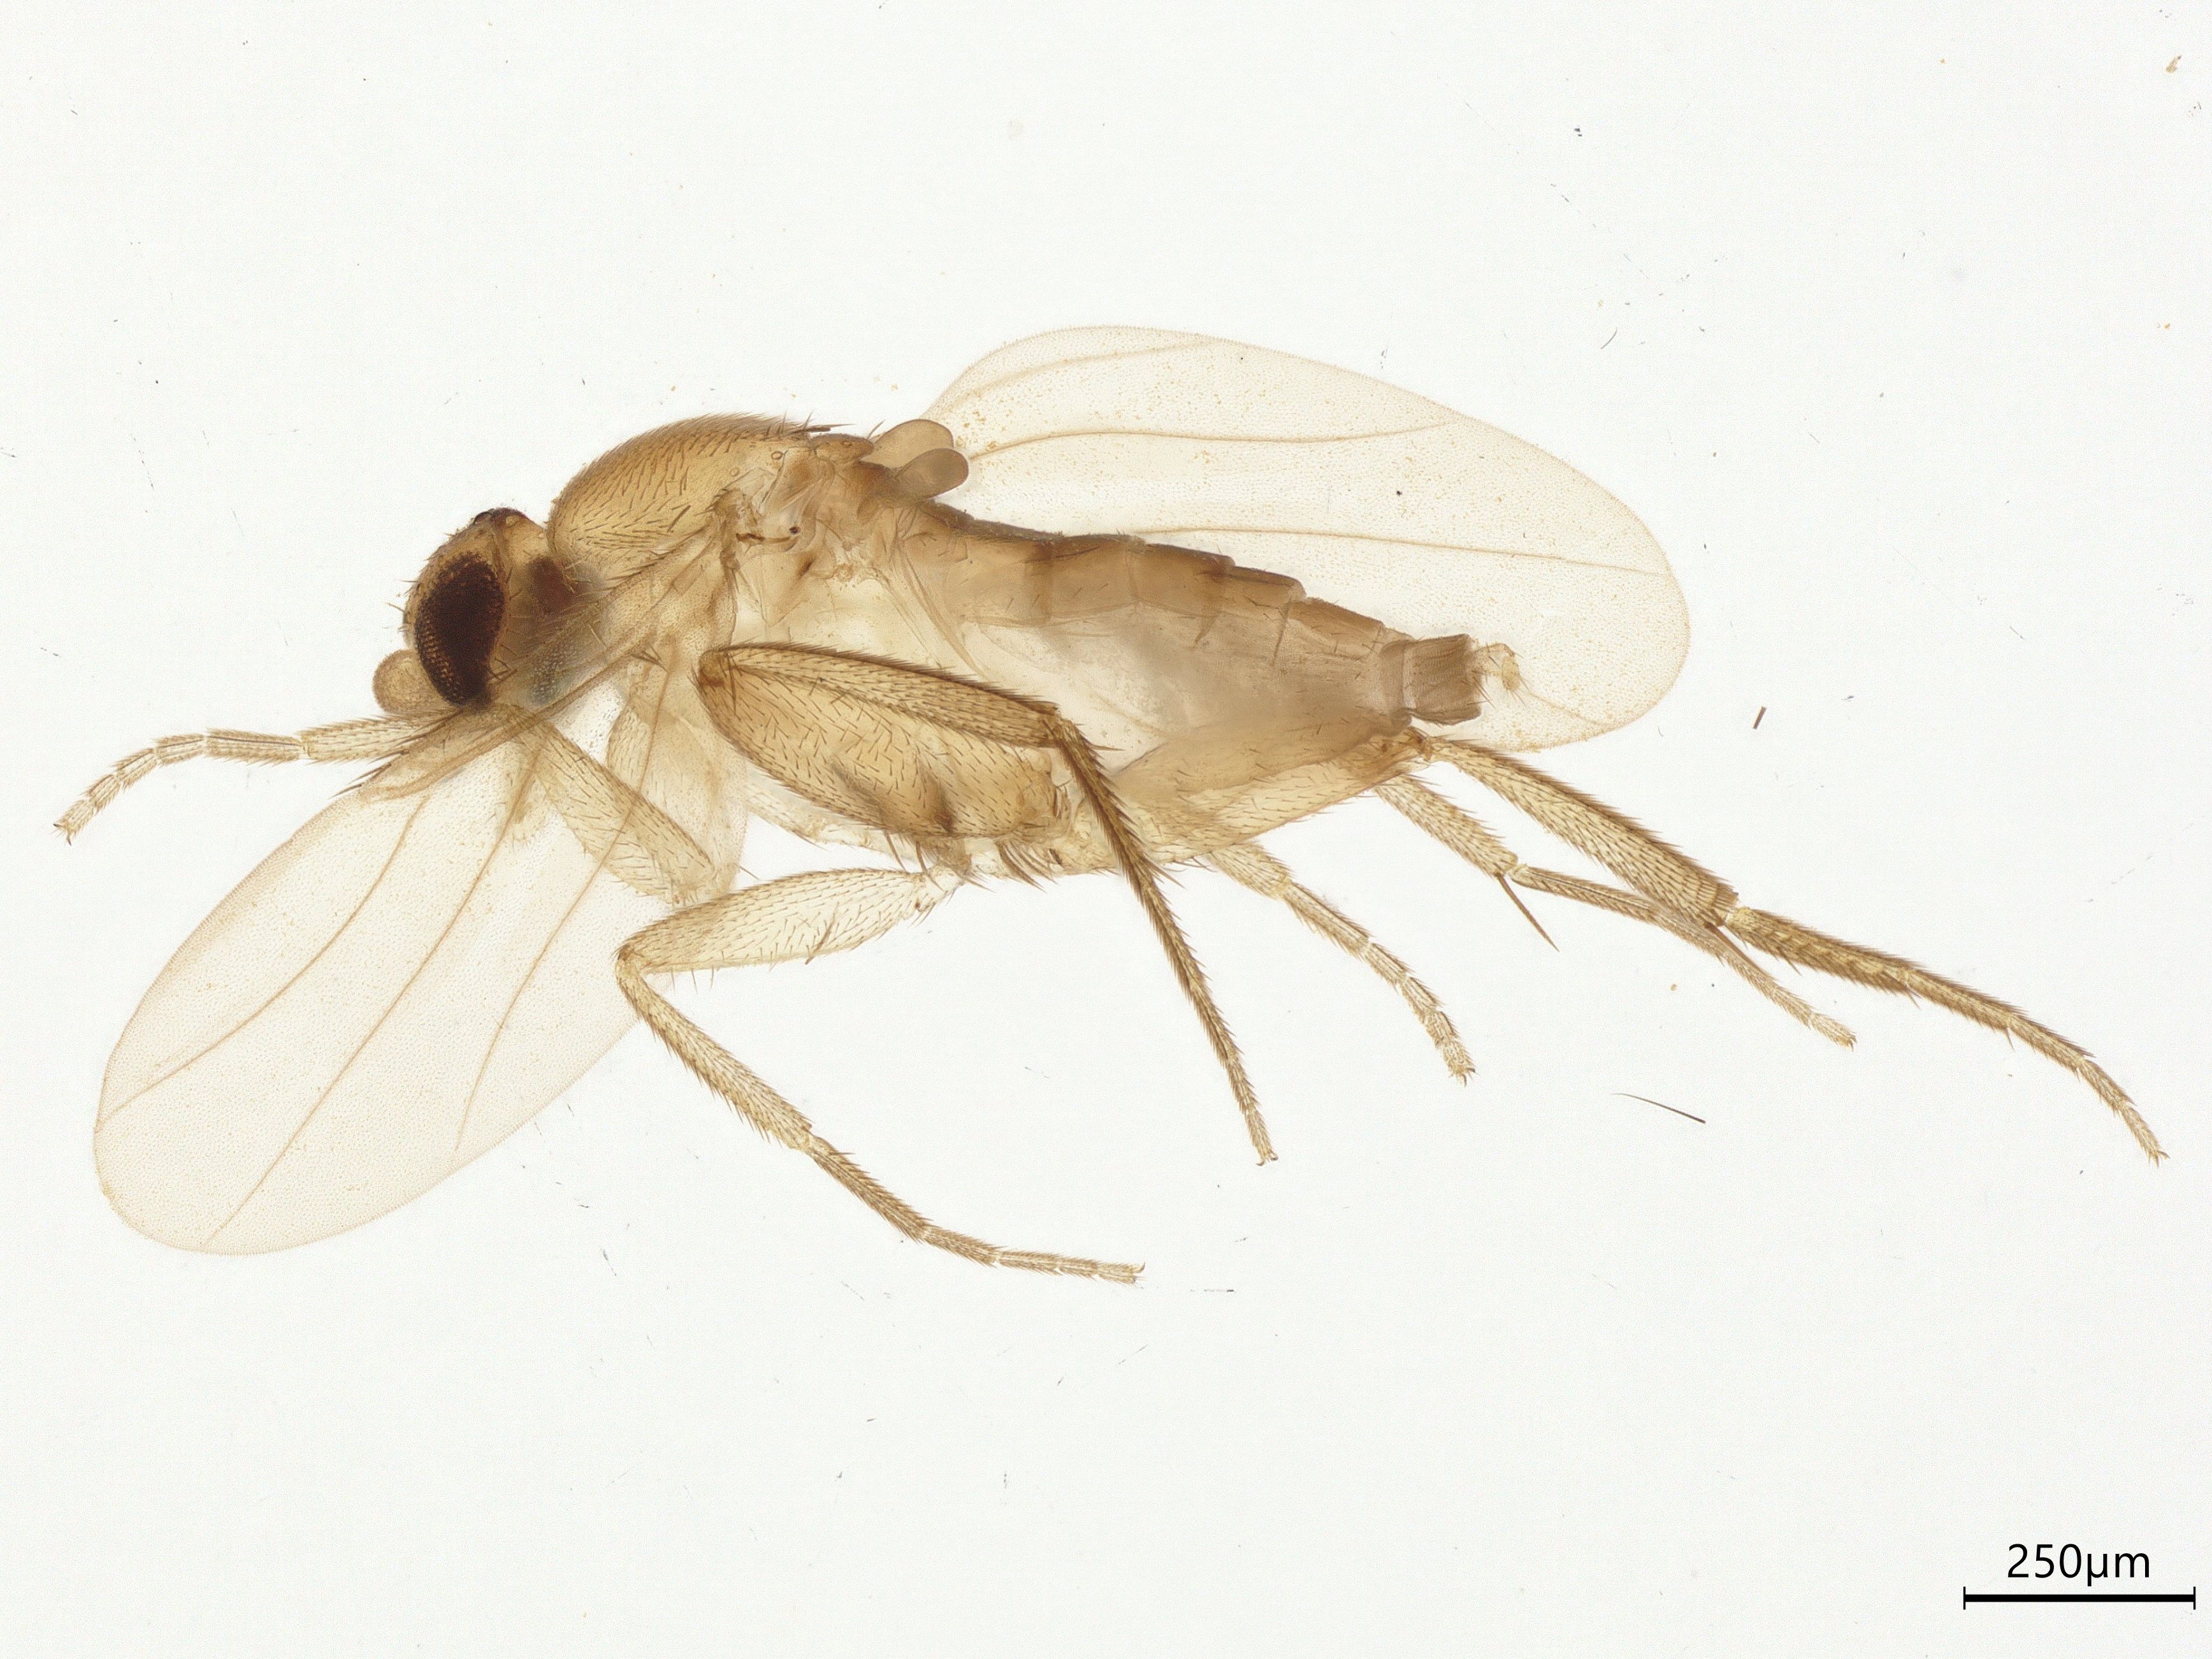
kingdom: Animalia
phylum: Arthropoda
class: Insecta
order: Diptera
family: Phoridae
